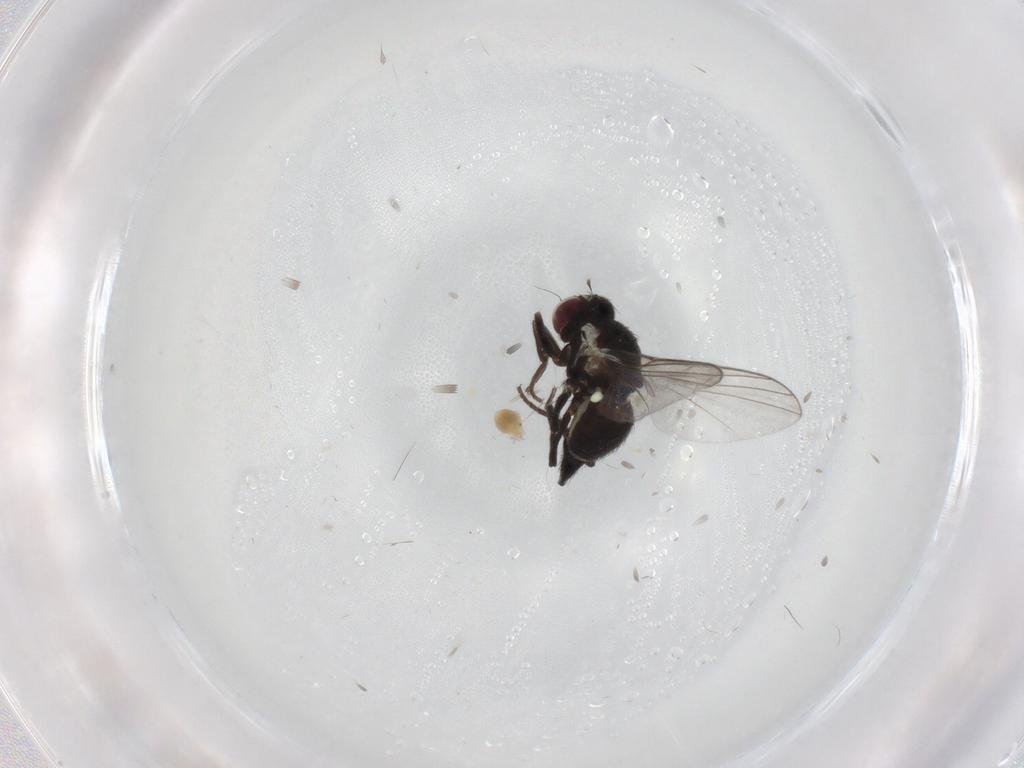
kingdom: Animalia
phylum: Arthropoda
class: Insecta
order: Diptera
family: Agromyzidae
